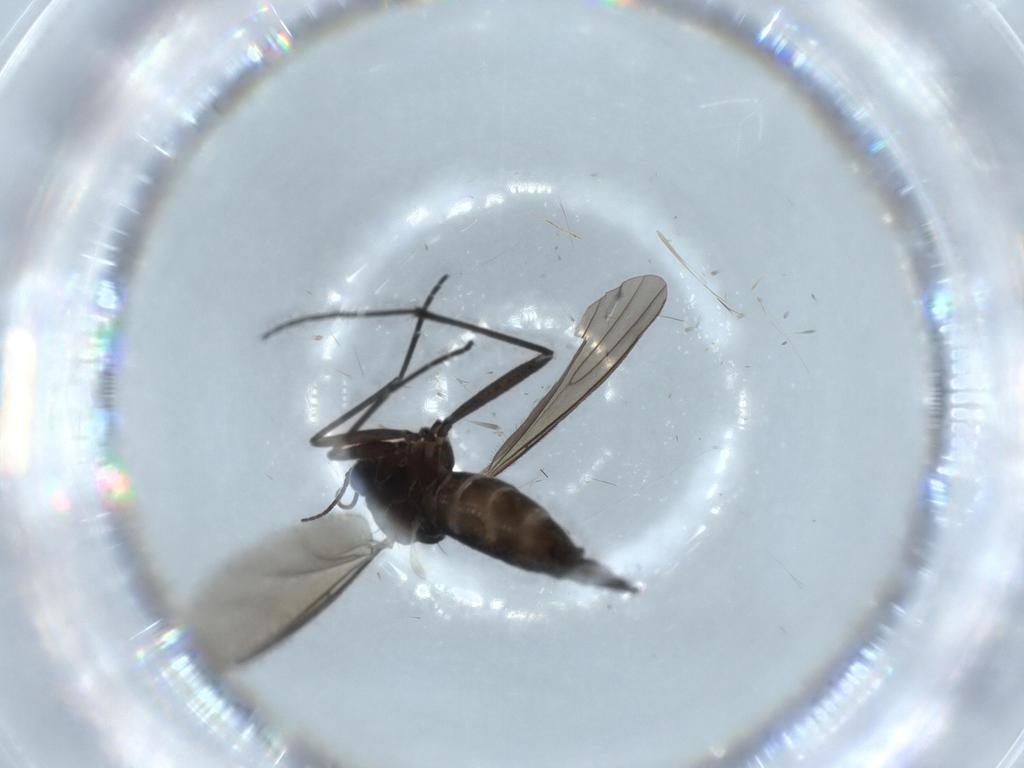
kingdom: Animalia
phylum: Arthropoda
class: Insecta
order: Diptera
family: Sciaridae
